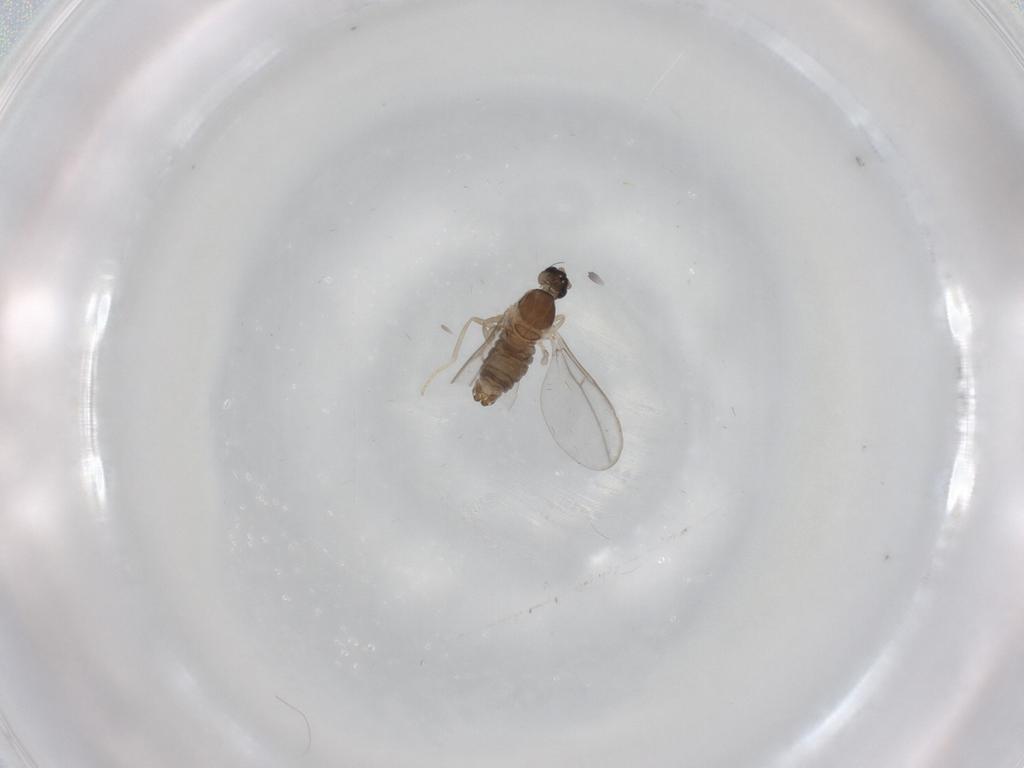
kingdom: Animalia
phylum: Arthropoda
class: Insecta
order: Diptera
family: Cecidomyiidae
